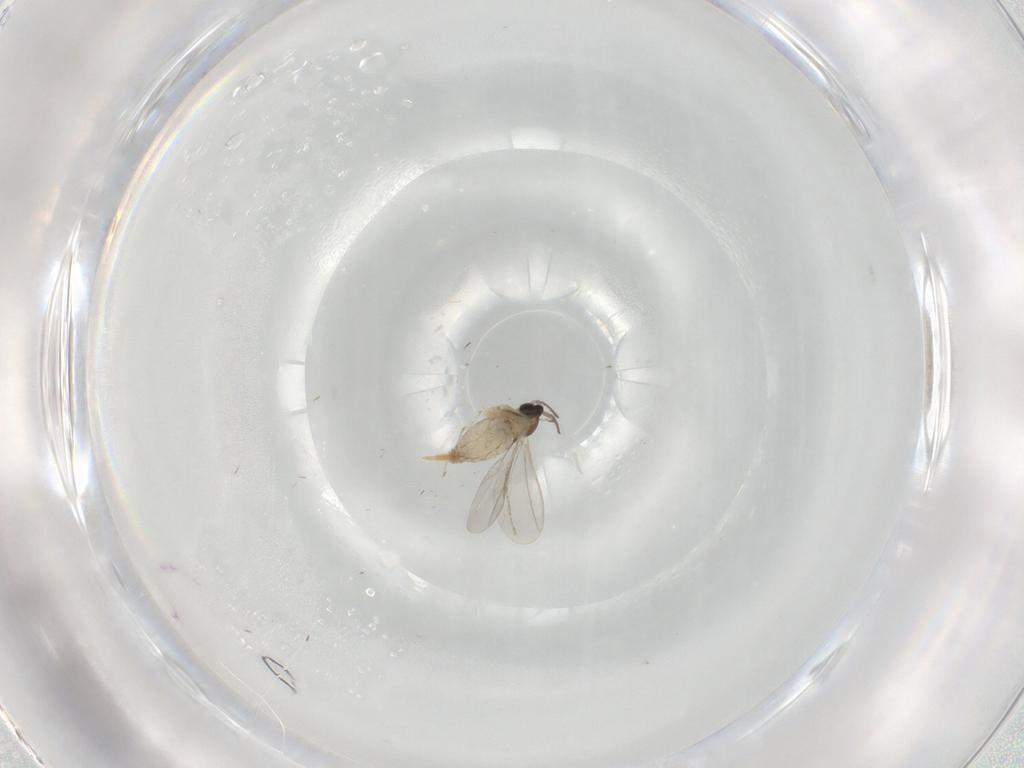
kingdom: Animalia
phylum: Arthropoda
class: Insecta
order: Diptera
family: Cecidomyiidae
